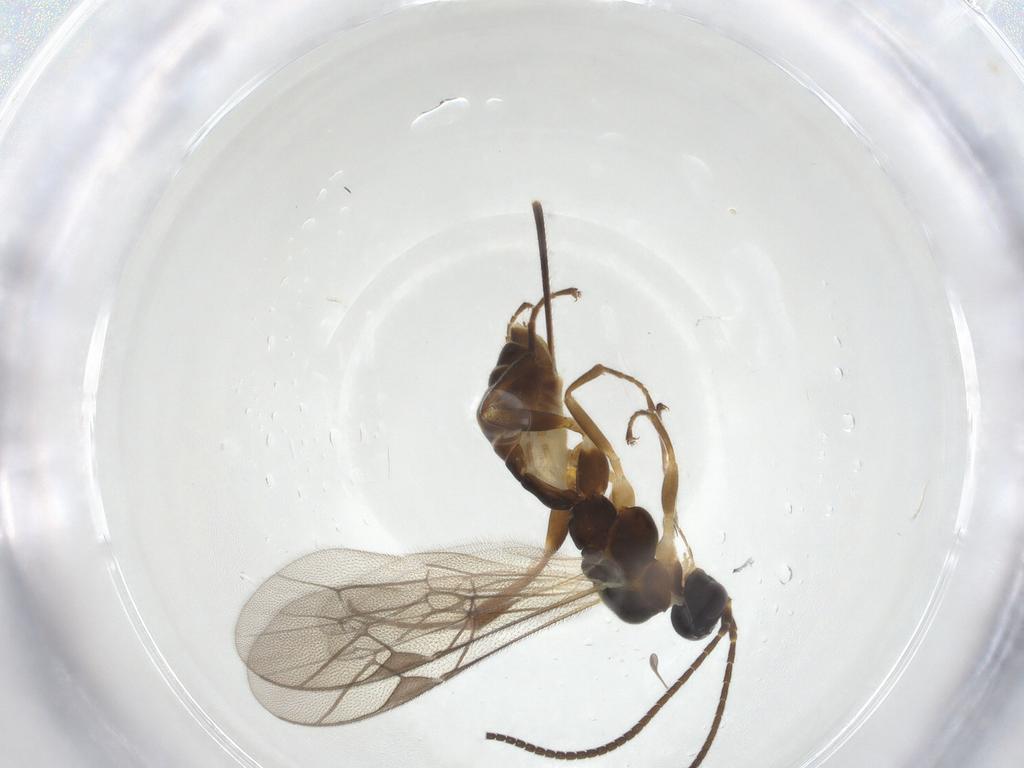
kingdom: Animalia
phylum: Arthropoda
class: Insecta
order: Hymenoptera
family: Ichneumonidae
